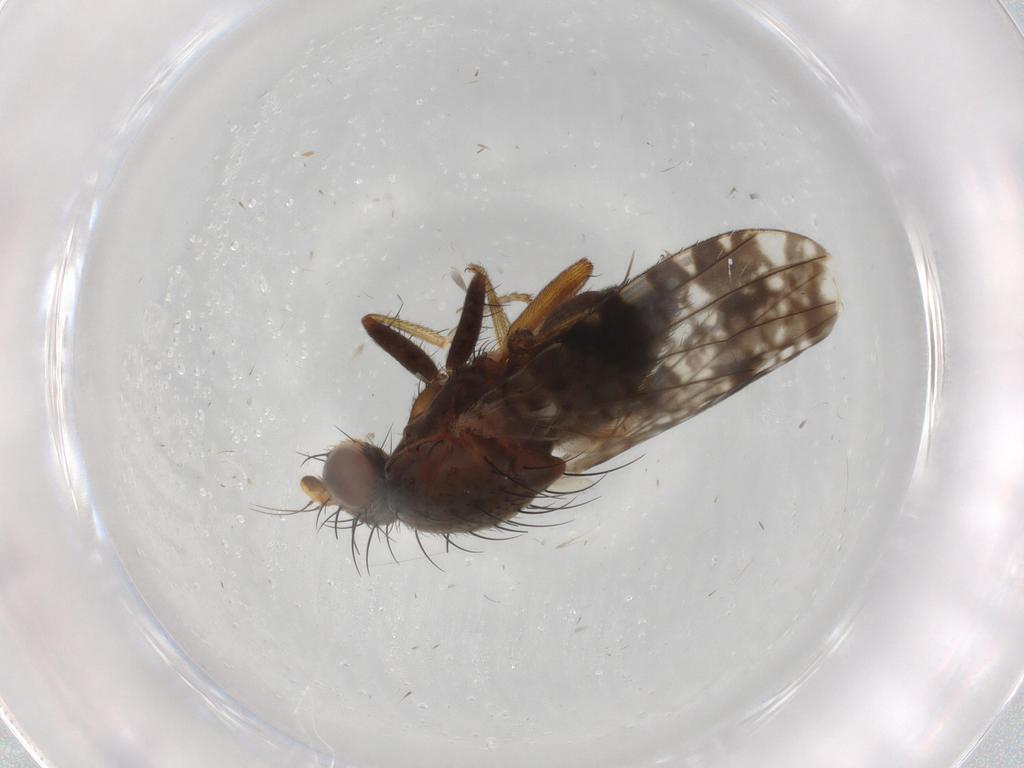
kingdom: Animalia
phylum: Arthropoda
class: Insecta
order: Diptera
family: Tephritidae
